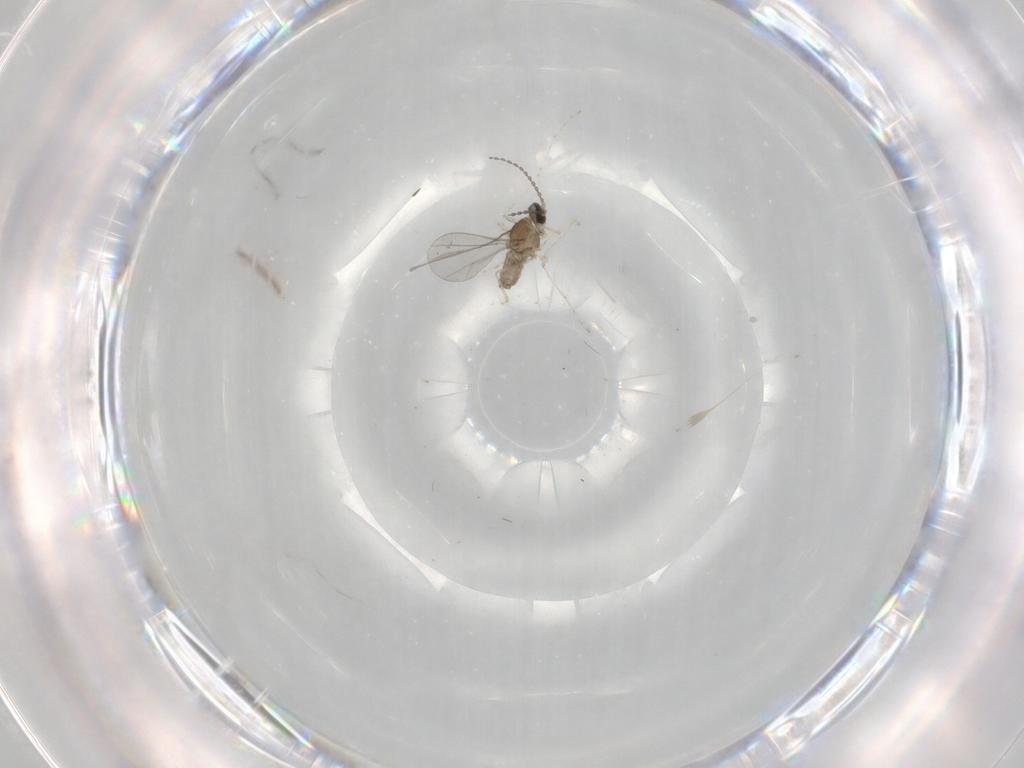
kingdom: Animalia
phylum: Arthropoda
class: Insecta
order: Diptera
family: Cecidomyiidae
